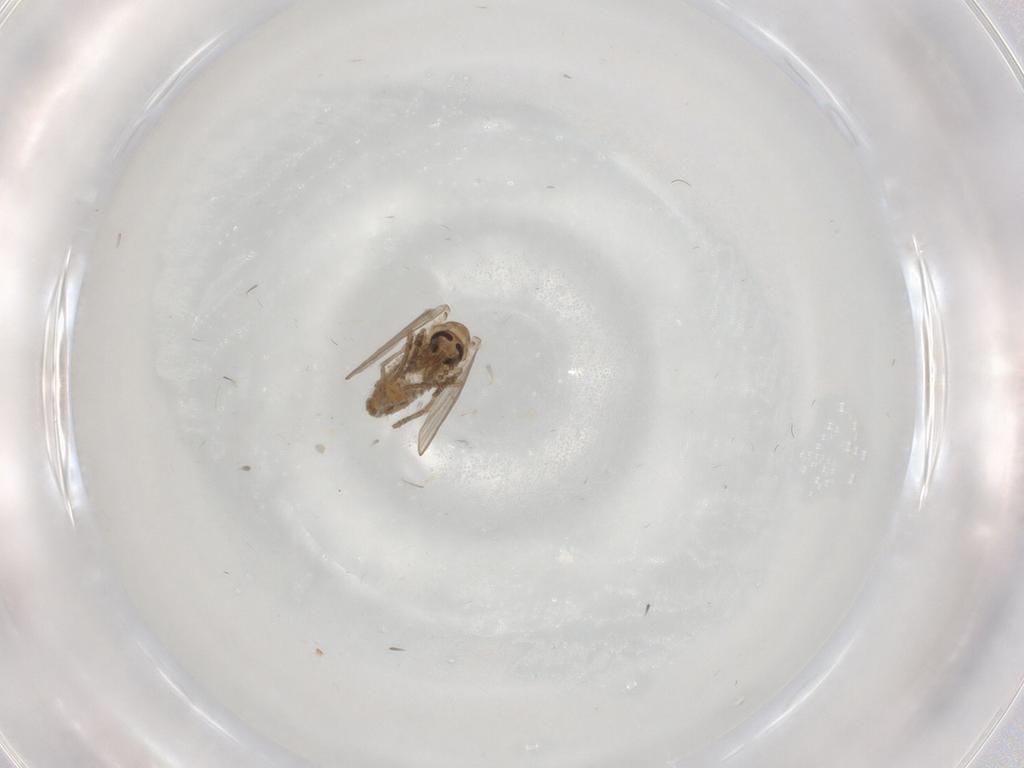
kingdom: Animalia
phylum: Arthropoda
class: Insecta
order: Diptera
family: Psychodidae
